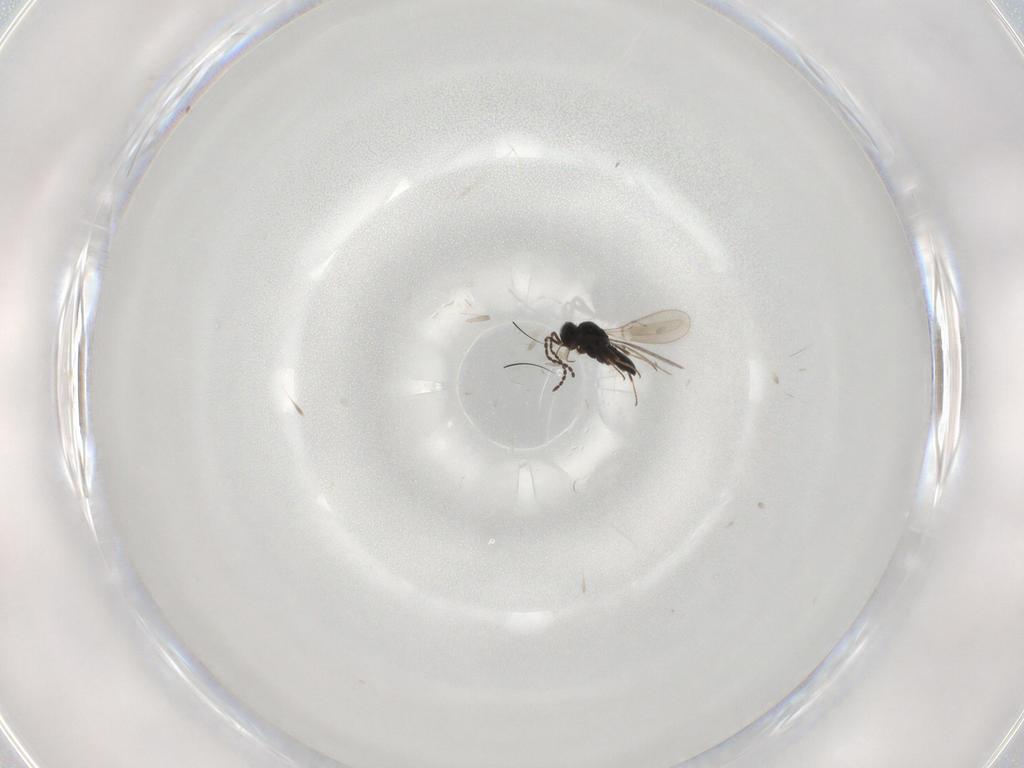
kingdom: Animalia
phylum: Arthropoda
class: Insecta
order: Hymenoptera
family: Scelionidae
